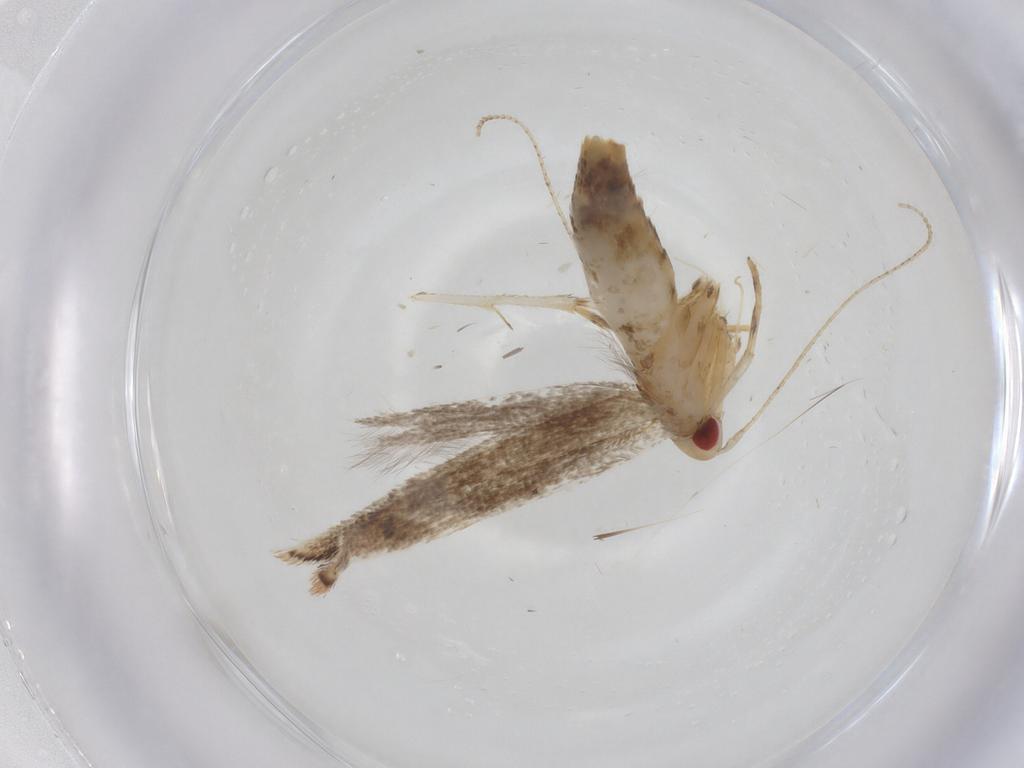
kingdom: Animalia
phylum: Arthropoda
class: Insecta
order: Lepidoptera
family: Cosmopterigidae
